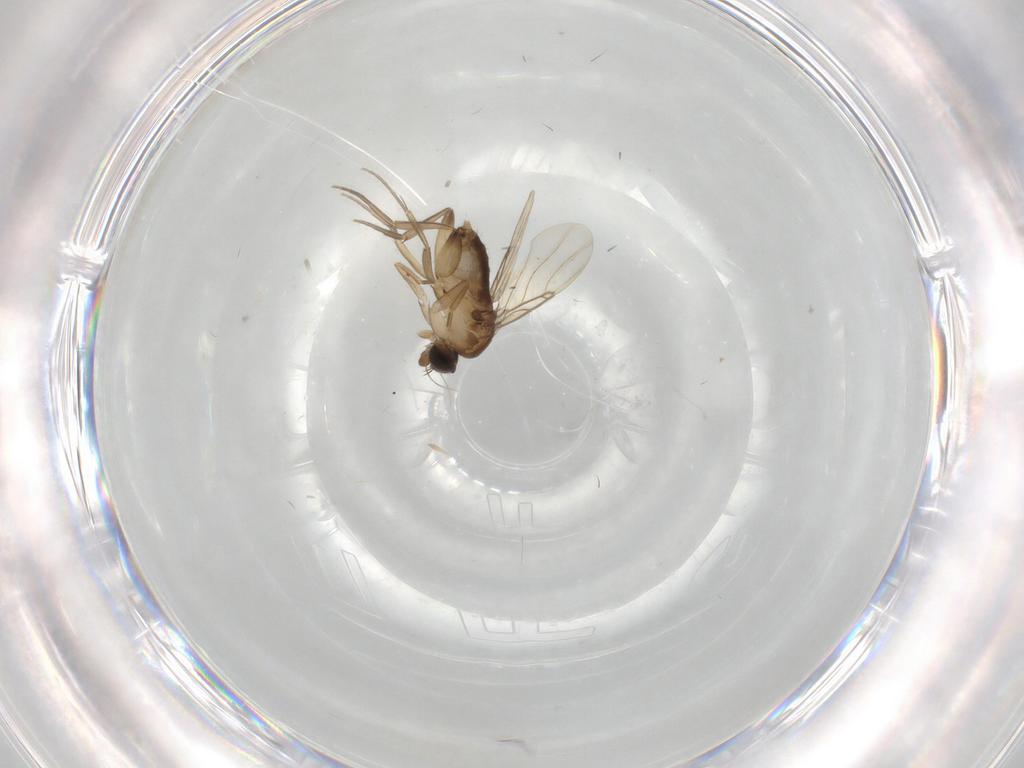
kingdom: Animalia
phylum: Arthropoda
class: Insecta
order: Diptera
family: Phoridae
